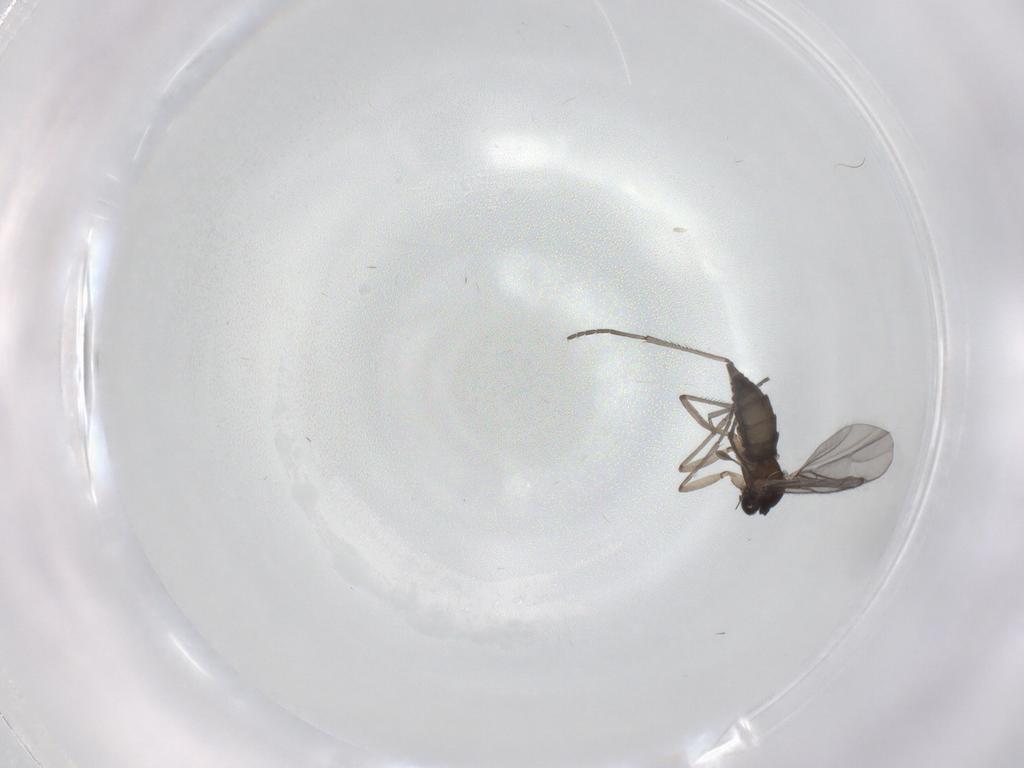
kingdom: Animalia
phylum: Arthropoda
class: Insecta
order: Diptera
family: Sciaridae
